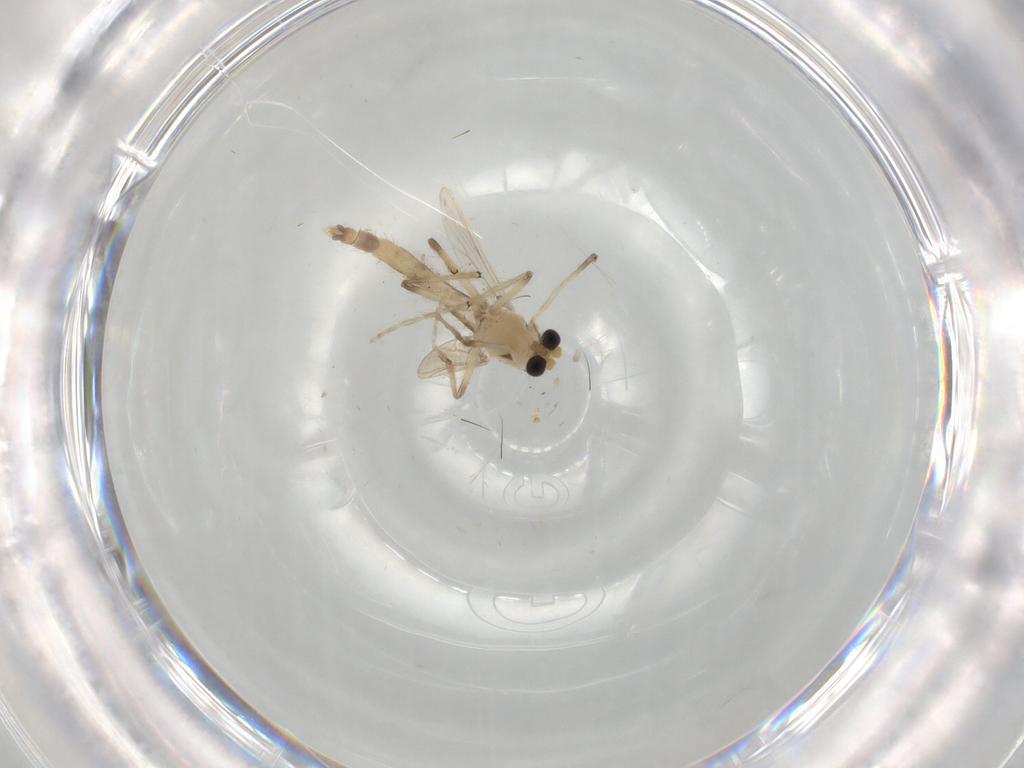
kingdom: Animalia
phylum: Arthropoda
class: Insecta
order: Diptera
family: Chironomidae
